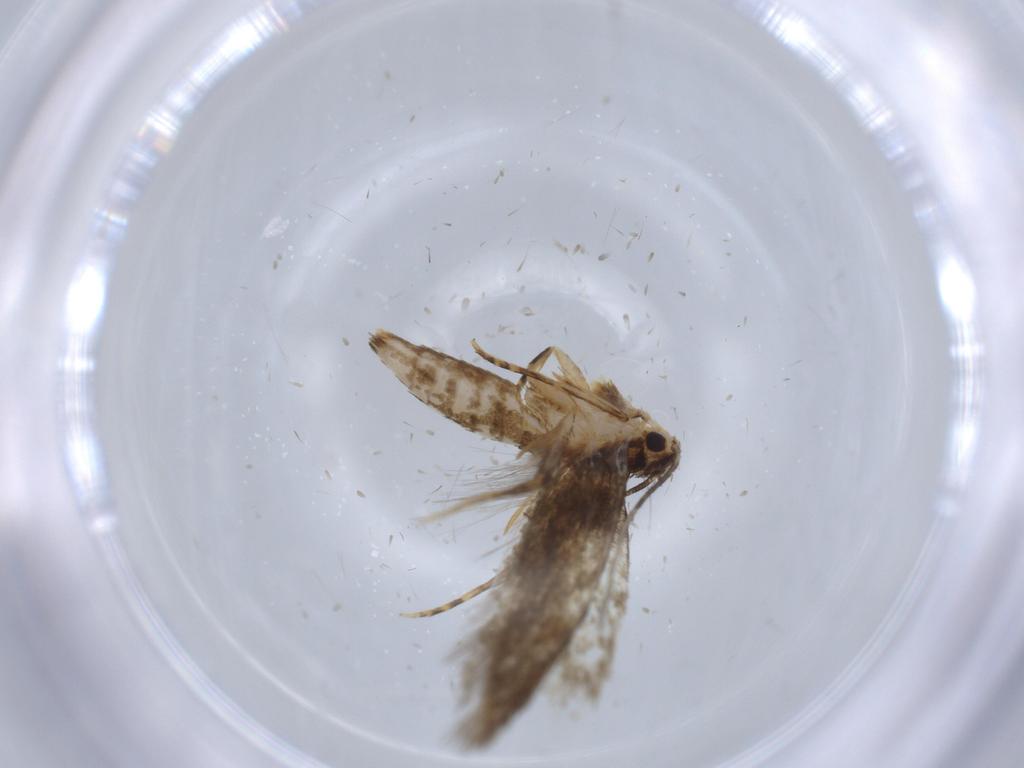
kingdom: Animalia
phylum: Arthropoda
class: Insecta
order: Lepidoptera
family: Tineidae
